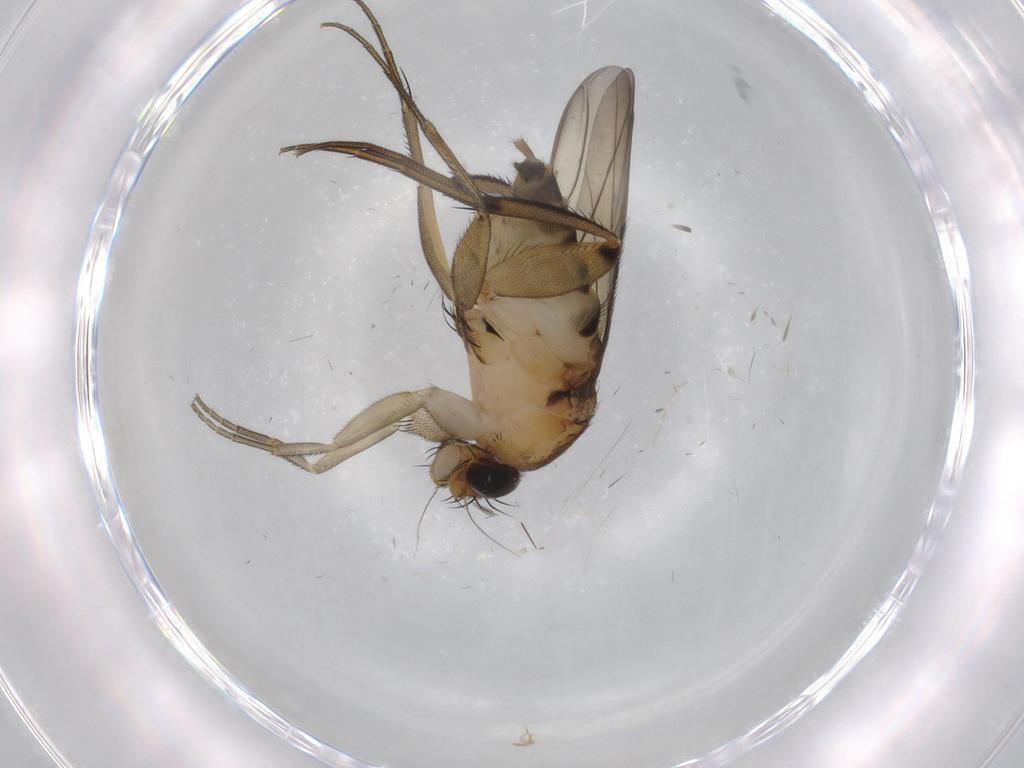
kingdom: Animalia
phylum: Arthropoda
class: Insecta
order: Diptera
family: Phoridae
